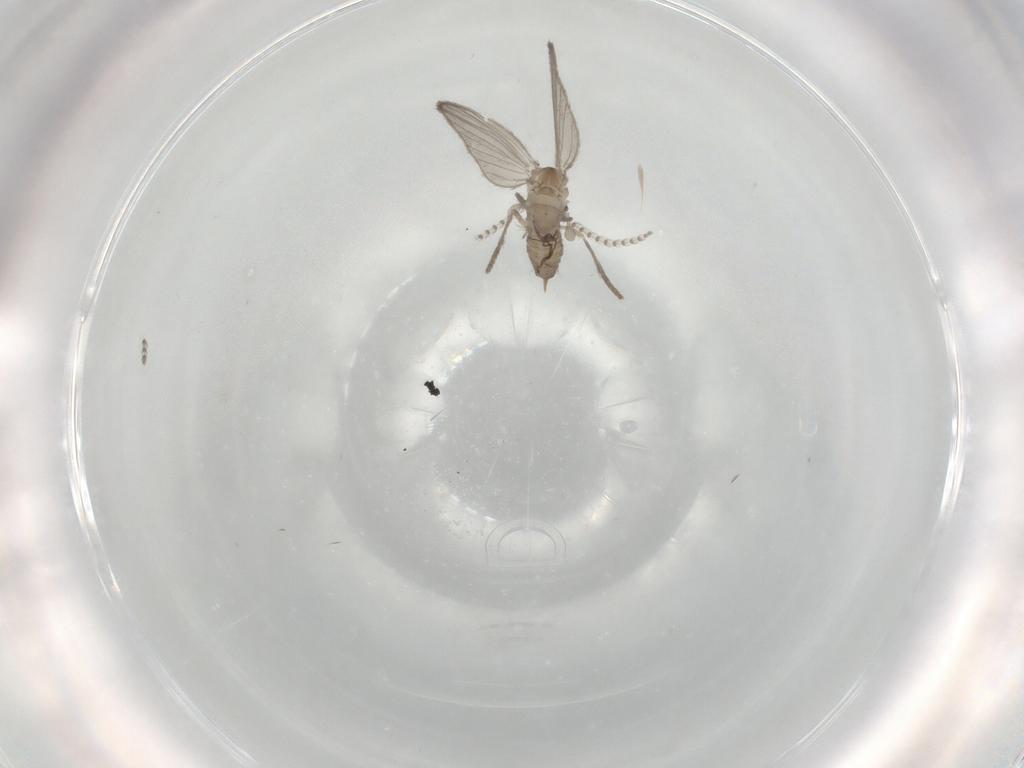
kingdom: Animalia
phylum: Arthropoda
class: Insecta
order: Diptera
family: Psychodidae
